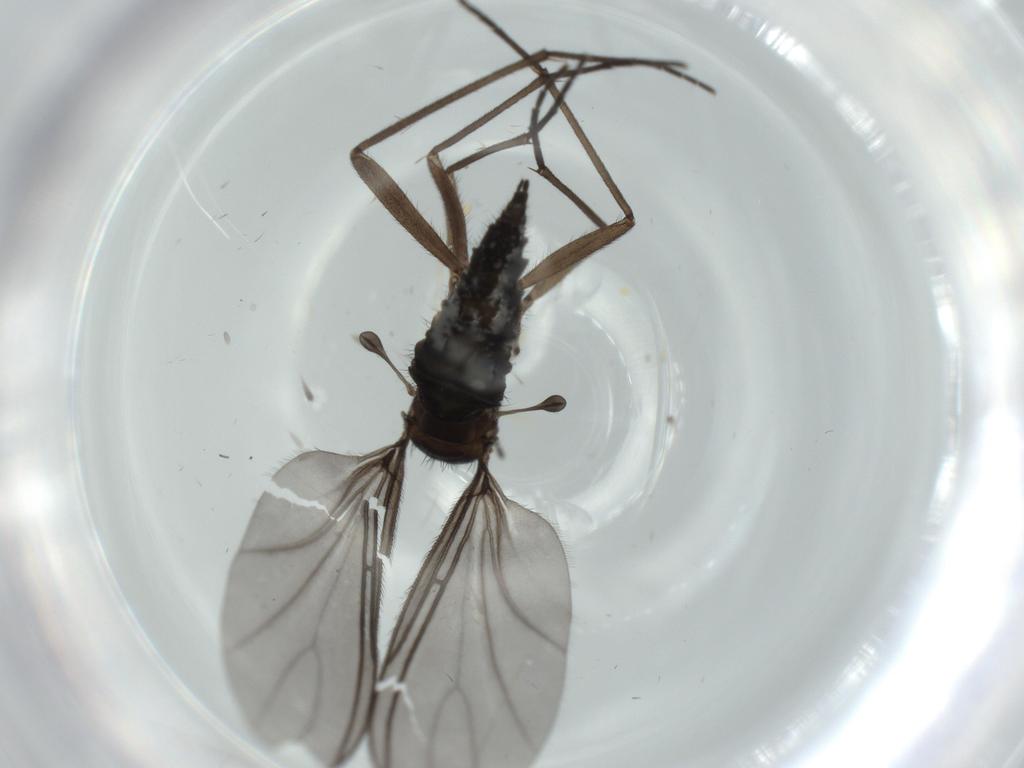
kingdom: Animalia
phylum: Arthropoda
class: Insecta
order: Diptera
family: Sciaridae
